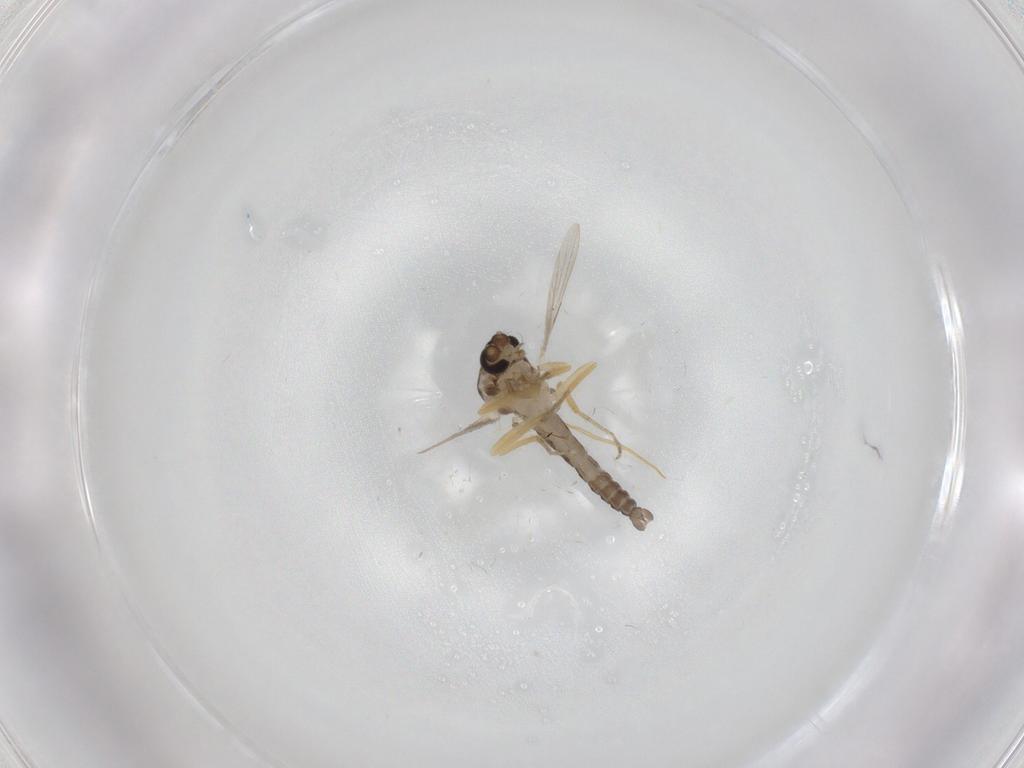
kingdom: Animalia
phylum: Arthropoda
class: Insecta
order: Diptera
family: Ceratopogonidae
